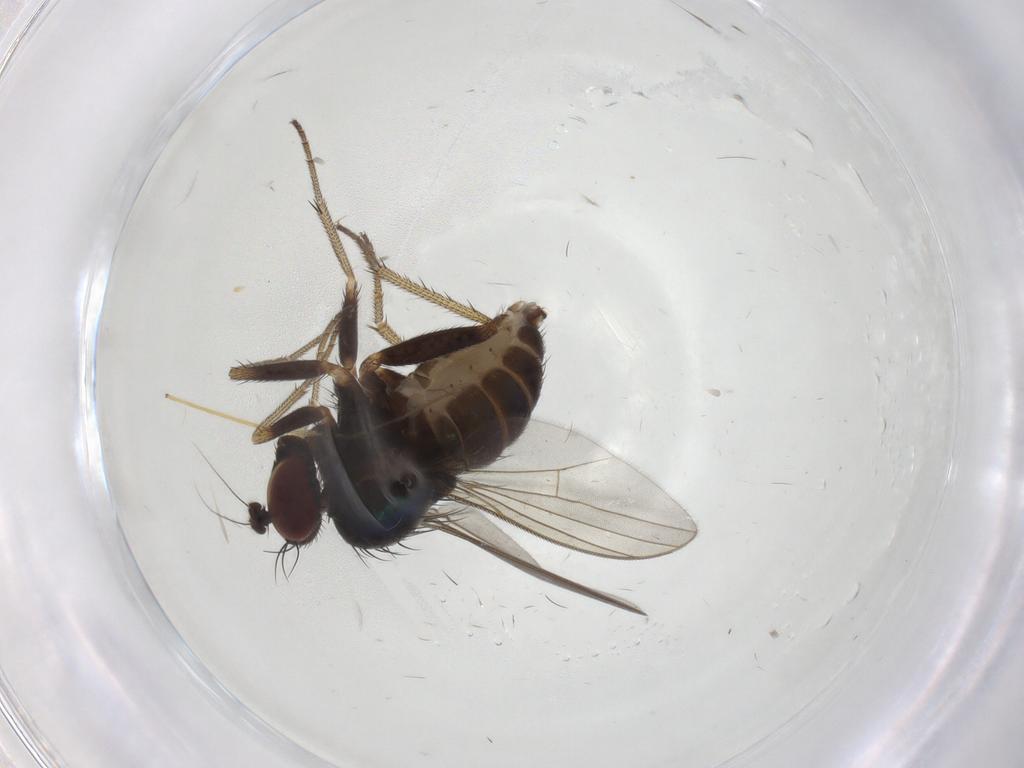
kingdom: Animalia
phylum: Arthropoda
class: Insecta
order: Diptera
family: Dolichopodidae
